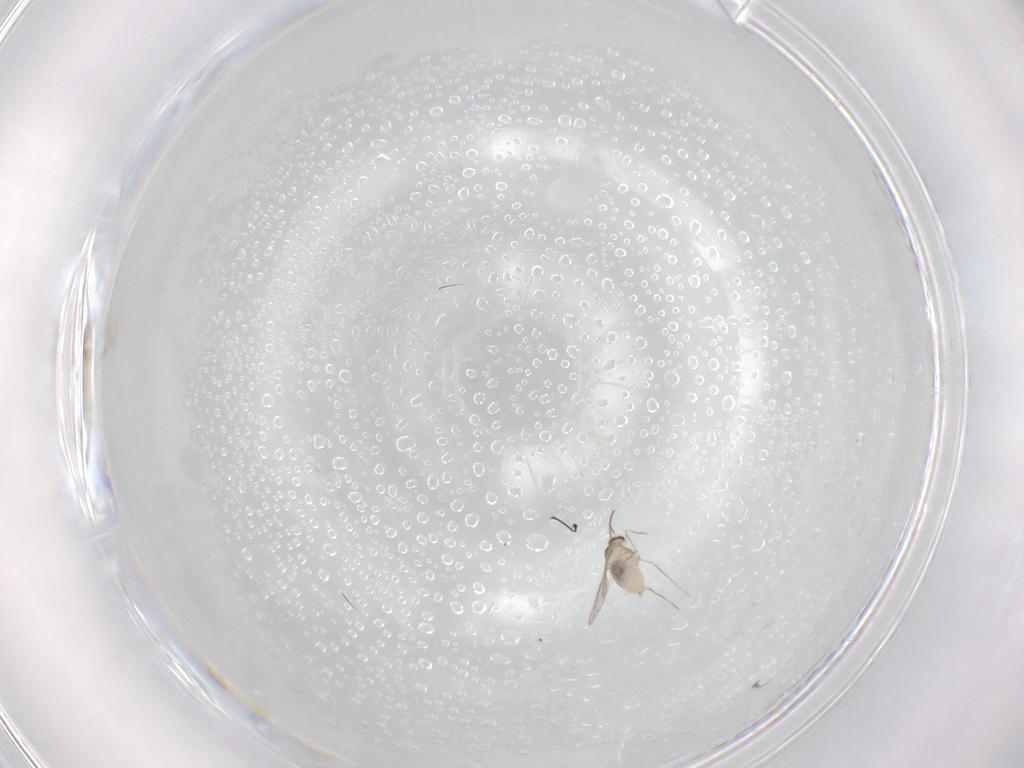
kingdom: Animalia
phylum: Arthropoda
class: Insecta
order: Diptera
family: Cecidomyiidae
